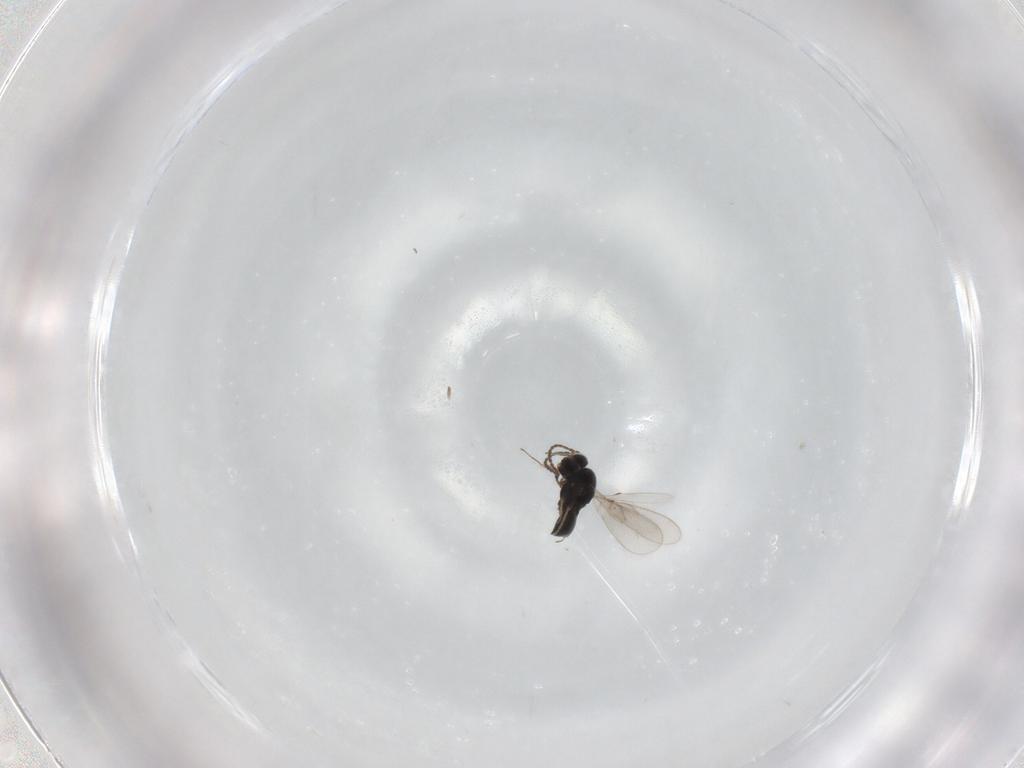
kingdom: Animalia
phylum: Arthropoda
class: Insecta
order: Hymenoptera
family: Scelionidae
